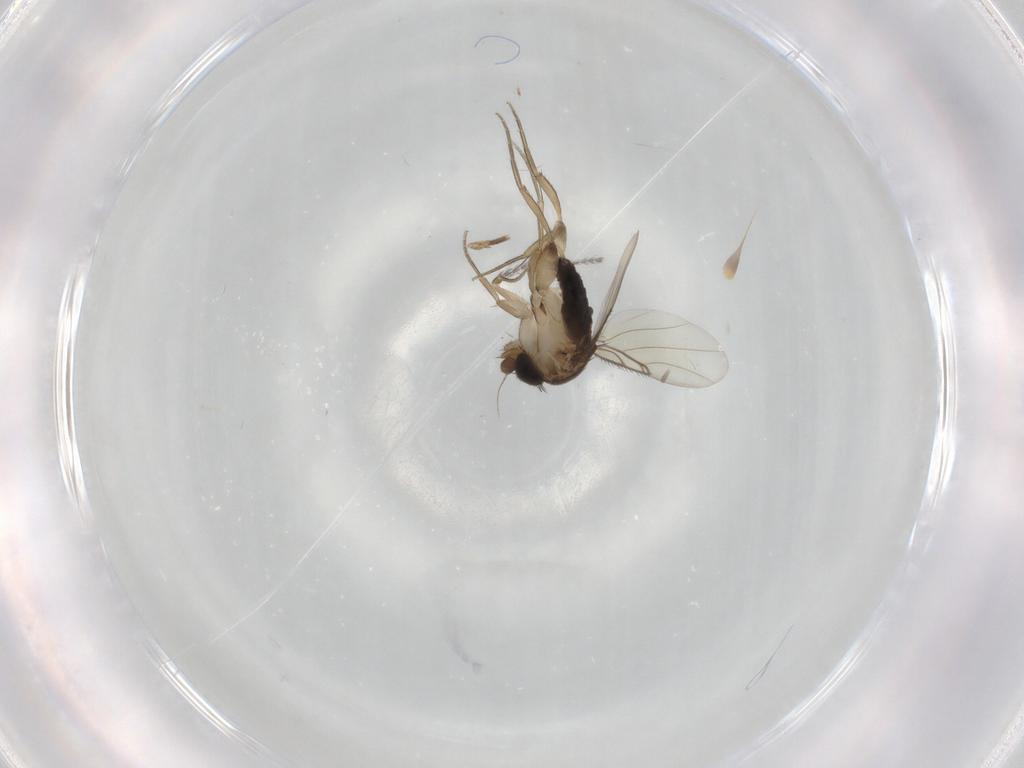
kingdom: Animalia
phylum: Arthropoda
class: Insecta
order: Diptera
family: Phoridae
